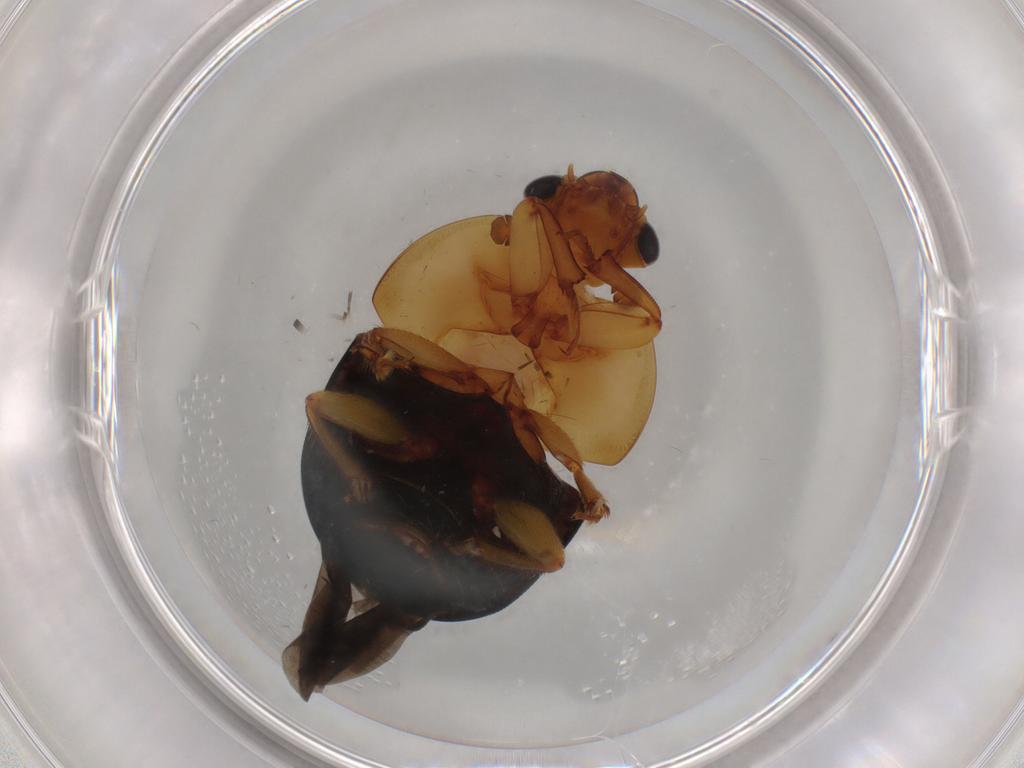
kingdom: Animalia
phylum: Arthropoda
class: Insecta
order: Coleoptera
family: Nitidulidae
